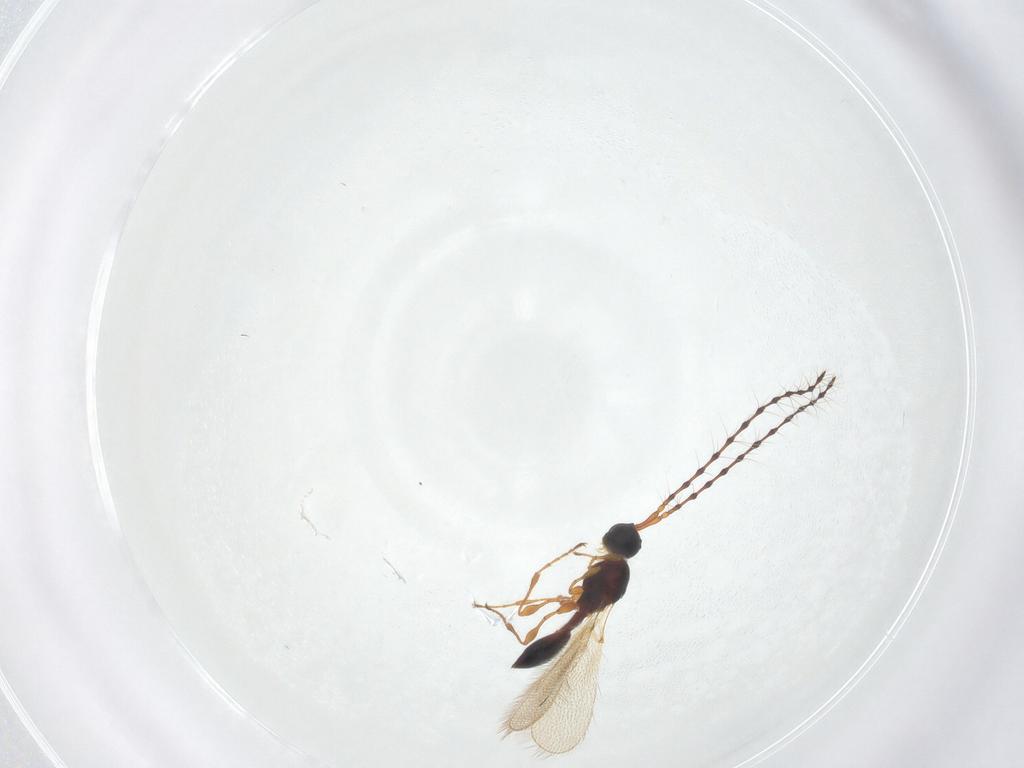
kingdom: Animalia
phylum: Arthropoda
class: Insecta
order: Hymenoptera
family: Diapriidae
